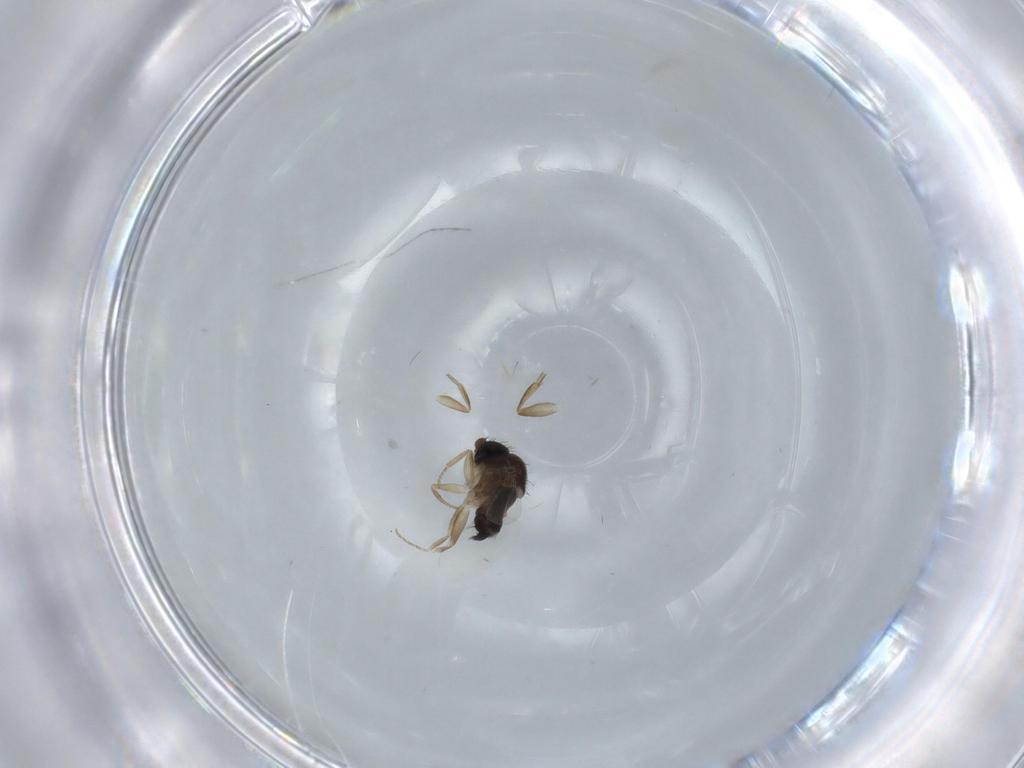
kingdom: Animalia
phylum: Arthropoda
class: Insecta
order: Diptera
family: Phoridae
